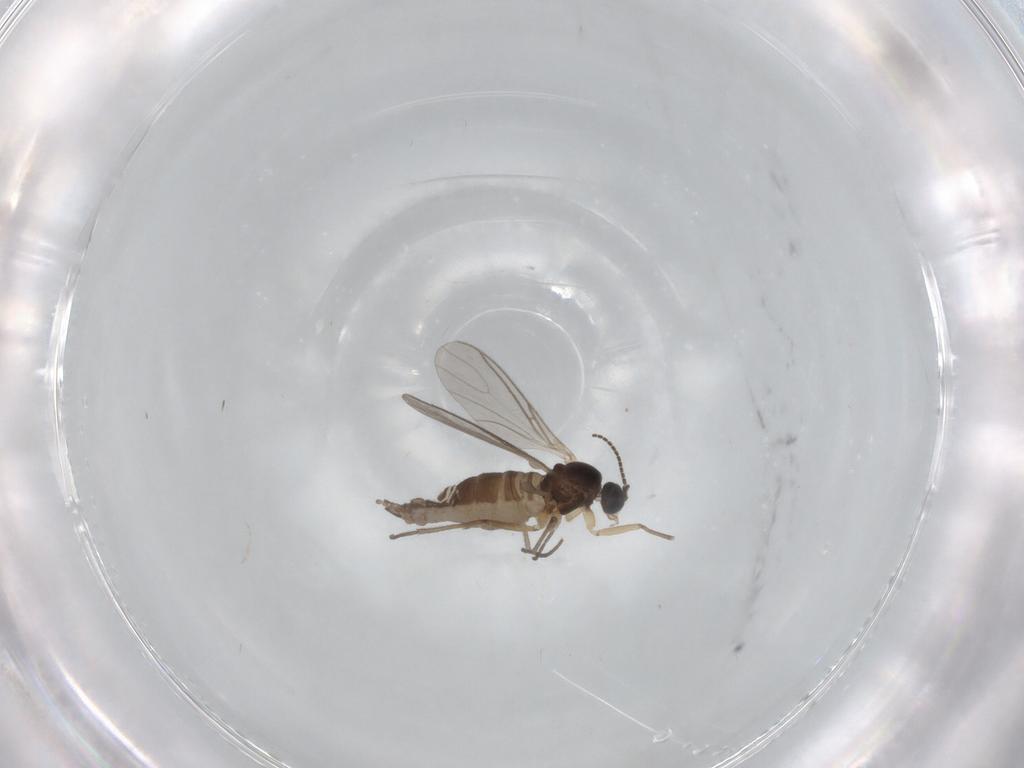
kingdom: Animalia
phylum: Arthropoda
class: Insecta
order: Diptera
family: Sciaridae
